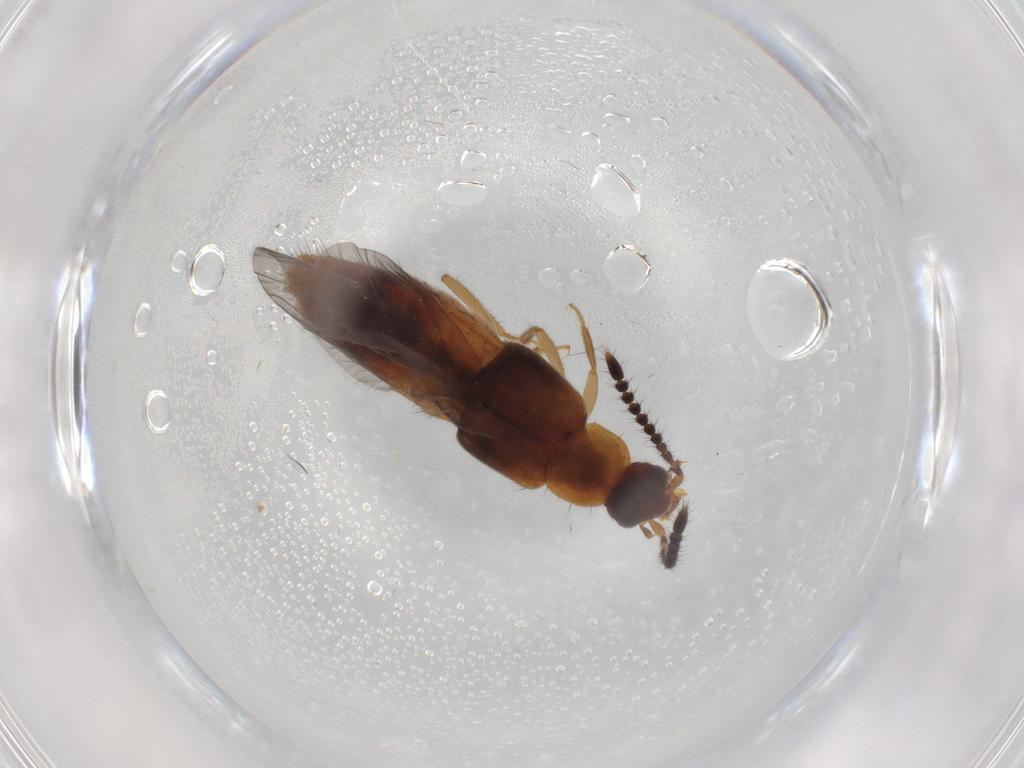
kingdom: Animalia
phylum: Arthropoda
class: Insecta
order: Coleoptera
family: Staphylinidae
